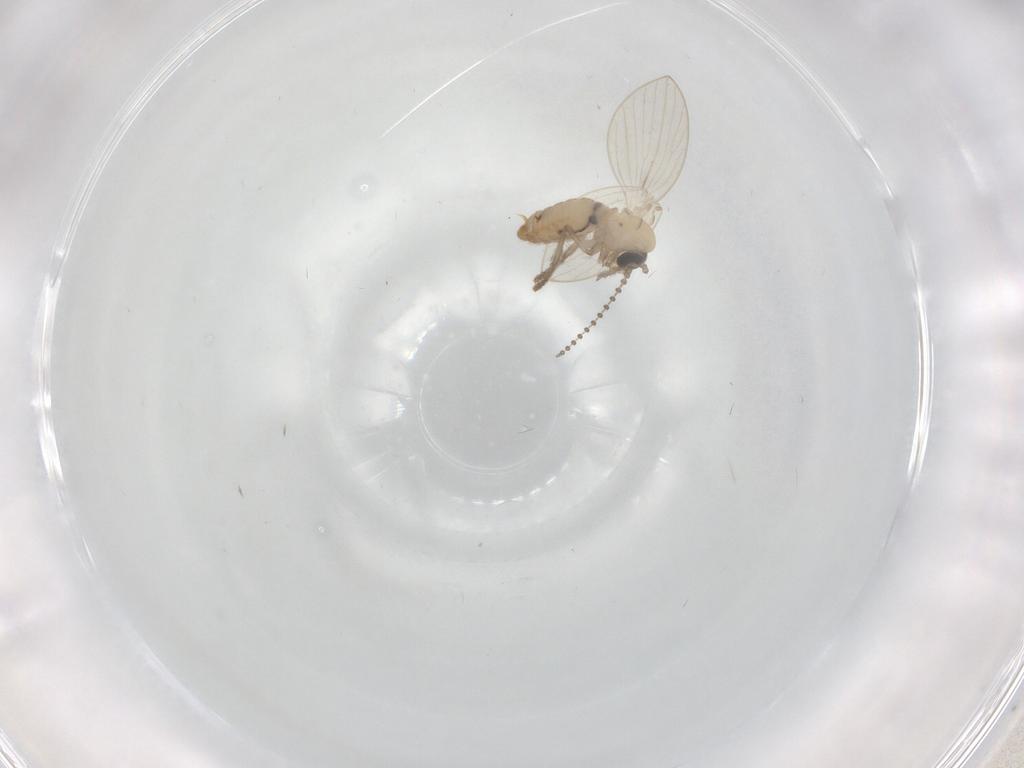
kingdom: Animalia
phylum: Arthropoda
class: Insecta
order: Diptera
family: Psychodidae
